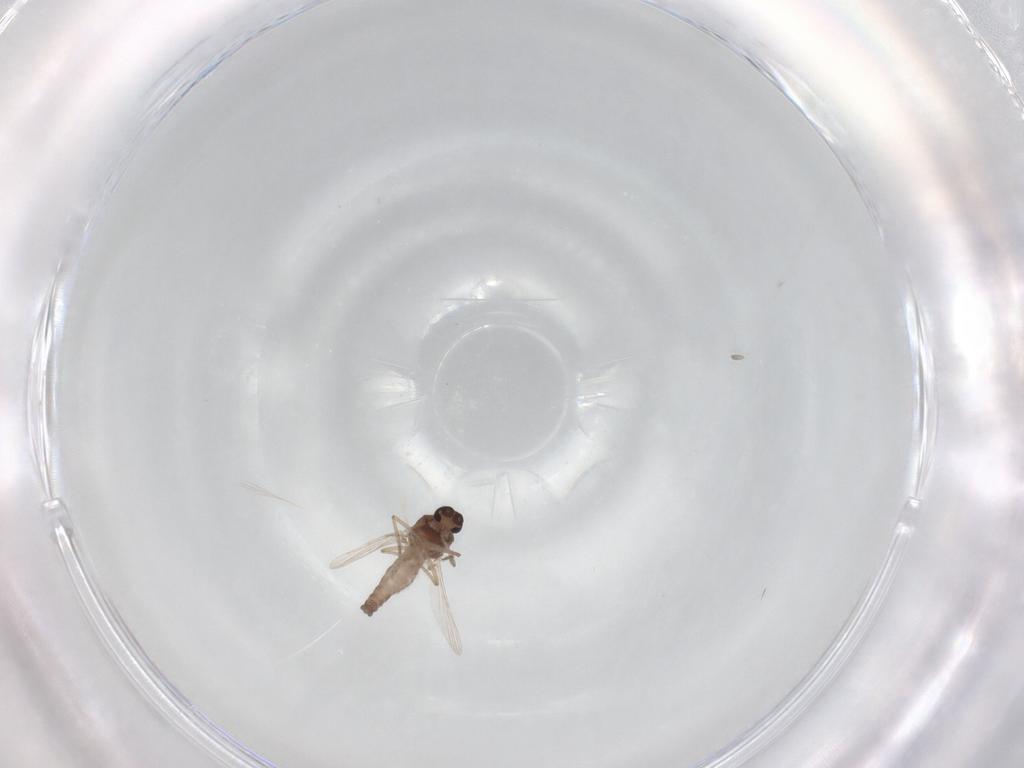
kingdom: Animalia
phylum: Arthropoda
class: Insecta
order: Diptera
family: Ceratopogonidae
